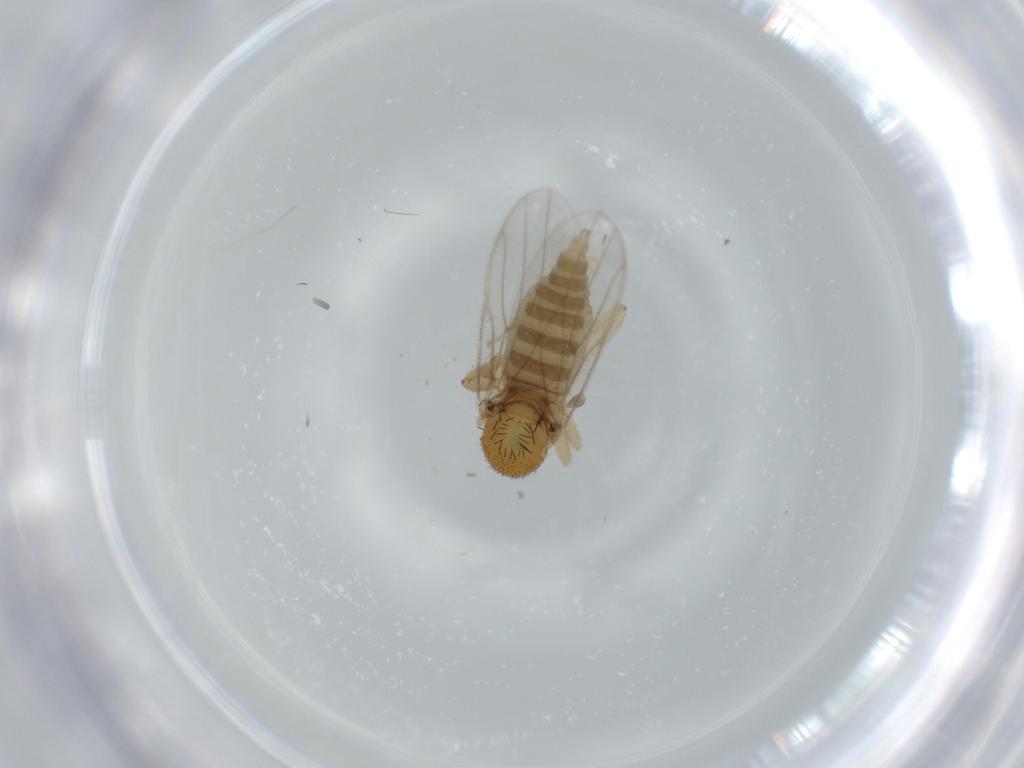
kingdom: Animalia
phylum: Arthropoda
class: Insecta
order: Diptera
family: Hybotidae
